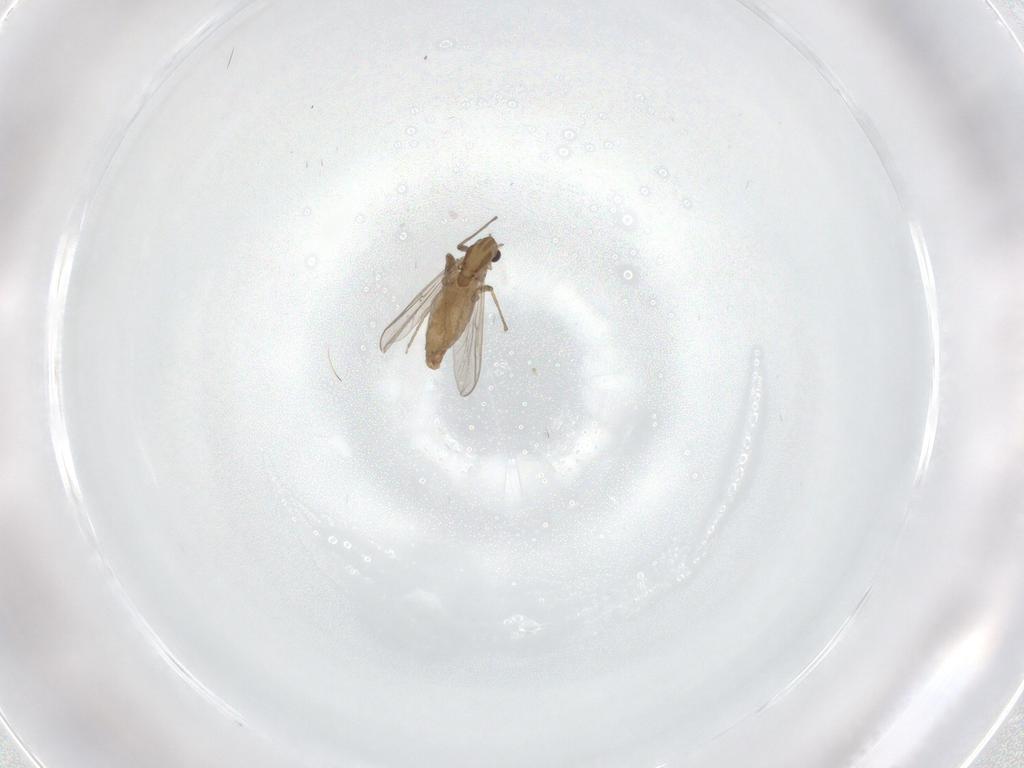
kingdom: Animalia
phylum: Arthropoda
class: Insecta
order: Diptera
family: Chironomidae
